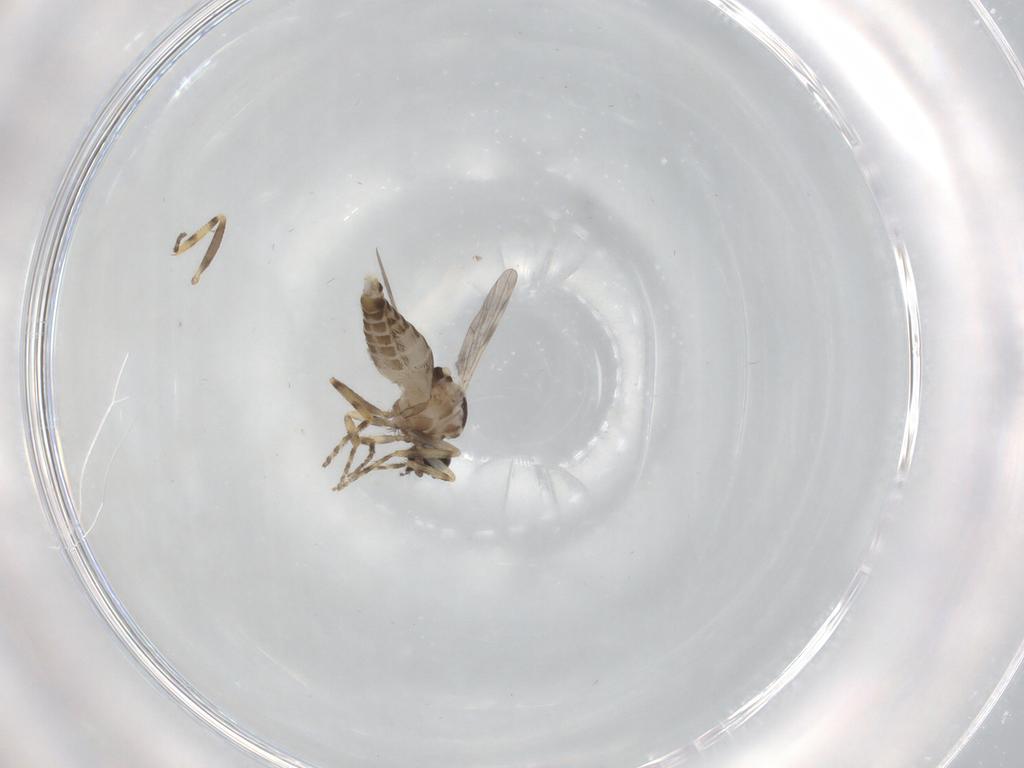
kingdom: Animalia
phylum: Arthropoda
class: Insecta
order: Diptera
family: Ceratopogonidae
